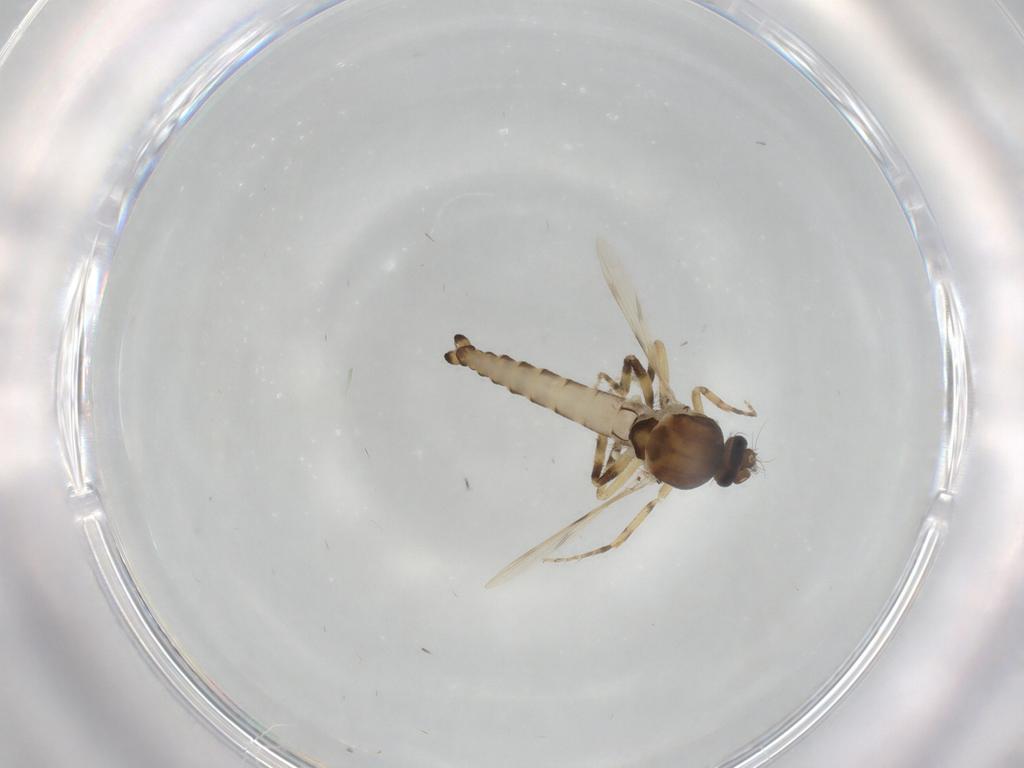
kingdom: Animalia
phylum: Arthropoda
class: Insecta
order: Diptera
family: Ceratopogonidae
